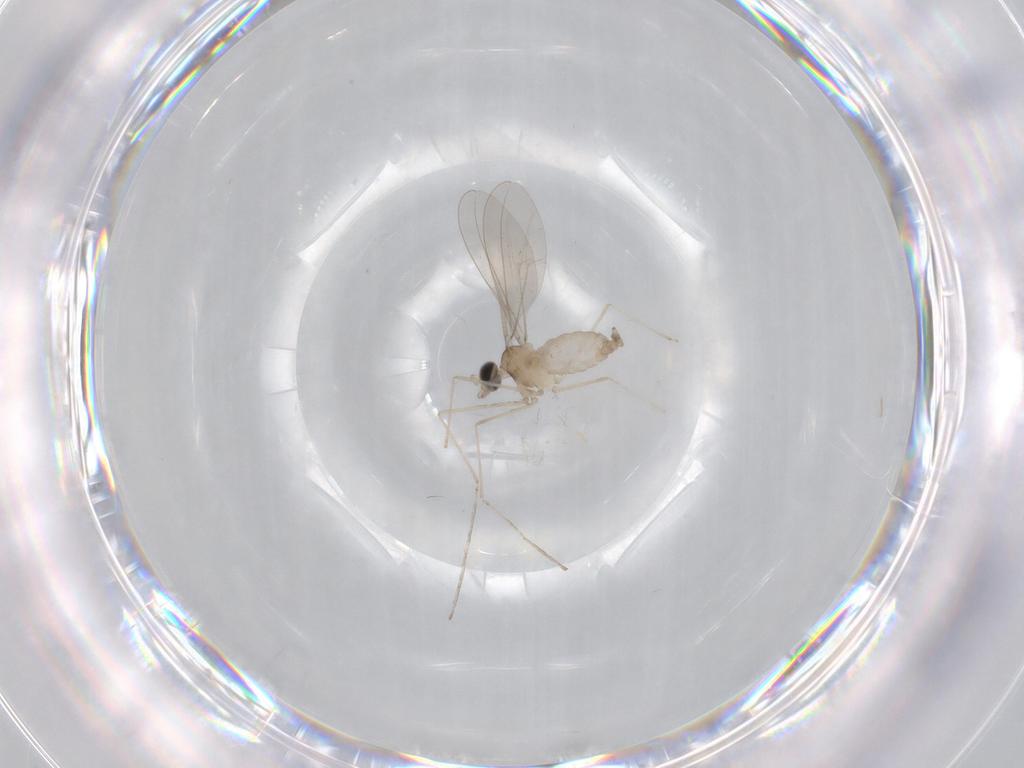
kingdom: Animalia
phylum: Arthropoda
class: Insecta
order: Diptera
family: Cecidomyiidae
